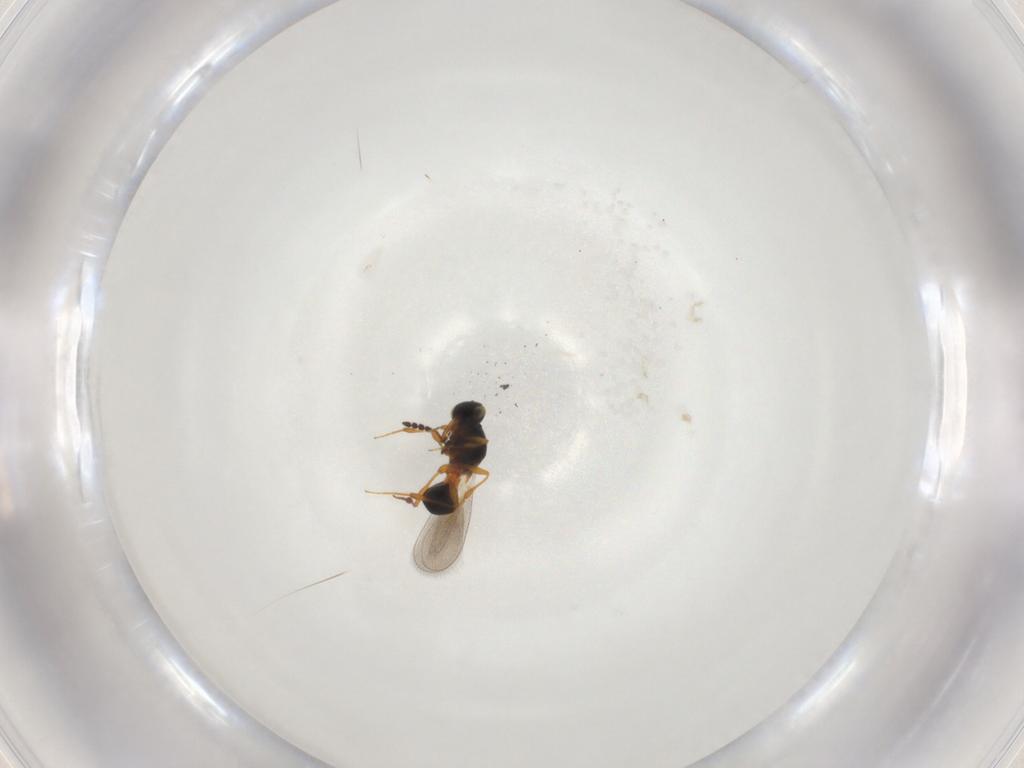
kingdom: Animalia
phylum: Arthropoda
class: Insecta
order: Hymenoptera
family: Platygastridae
